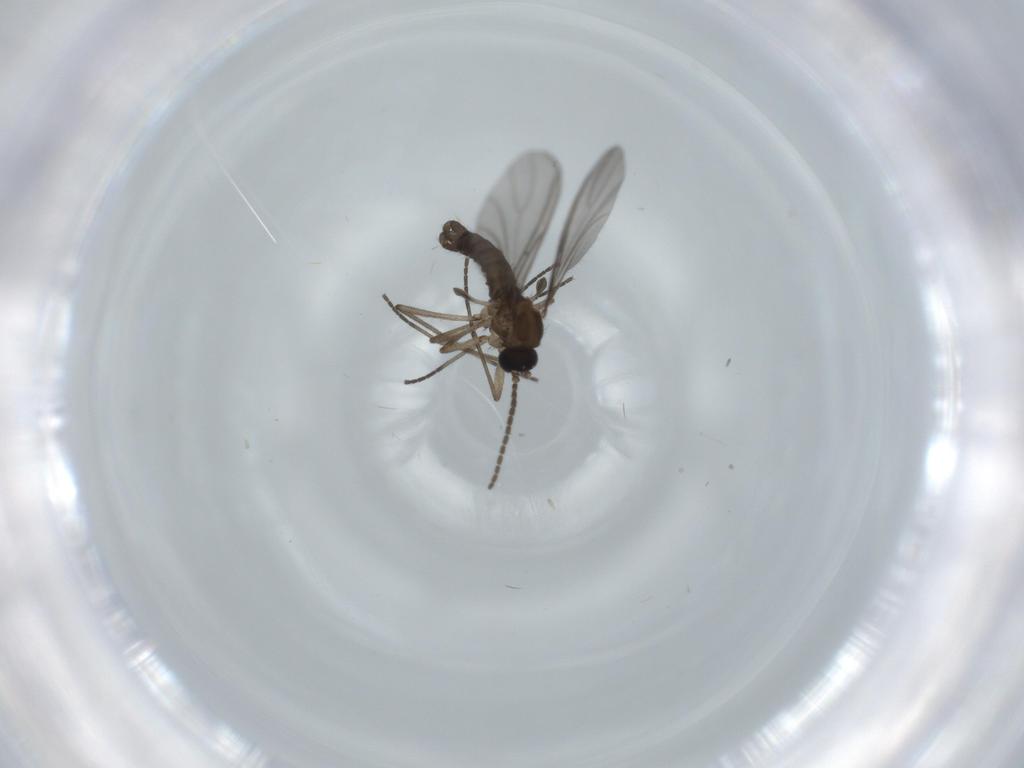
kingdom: Animalia
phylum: Arthropoda
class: Insecta
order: Diptera
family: Sciaridae
